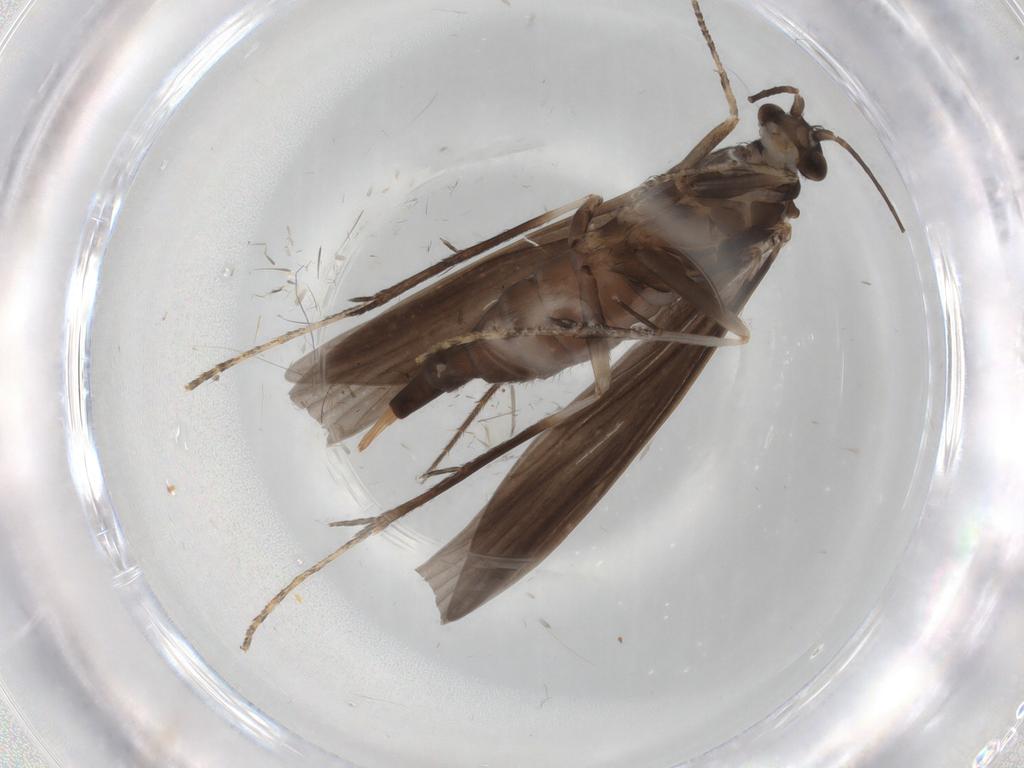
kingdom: Animalia
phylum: Arthropoda
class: Insecta
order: Trichoptera
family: Xiphocentronidae
